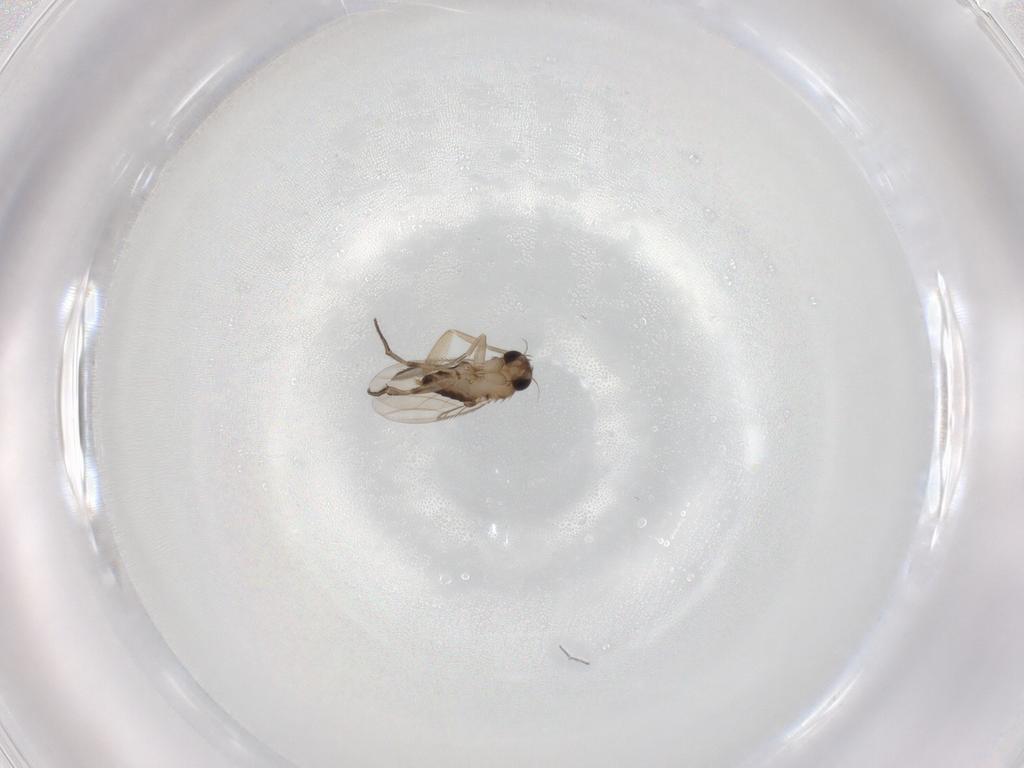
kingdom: Animalia
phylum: Arthropoda
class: Insecta
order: Diptera
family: Phoridae
